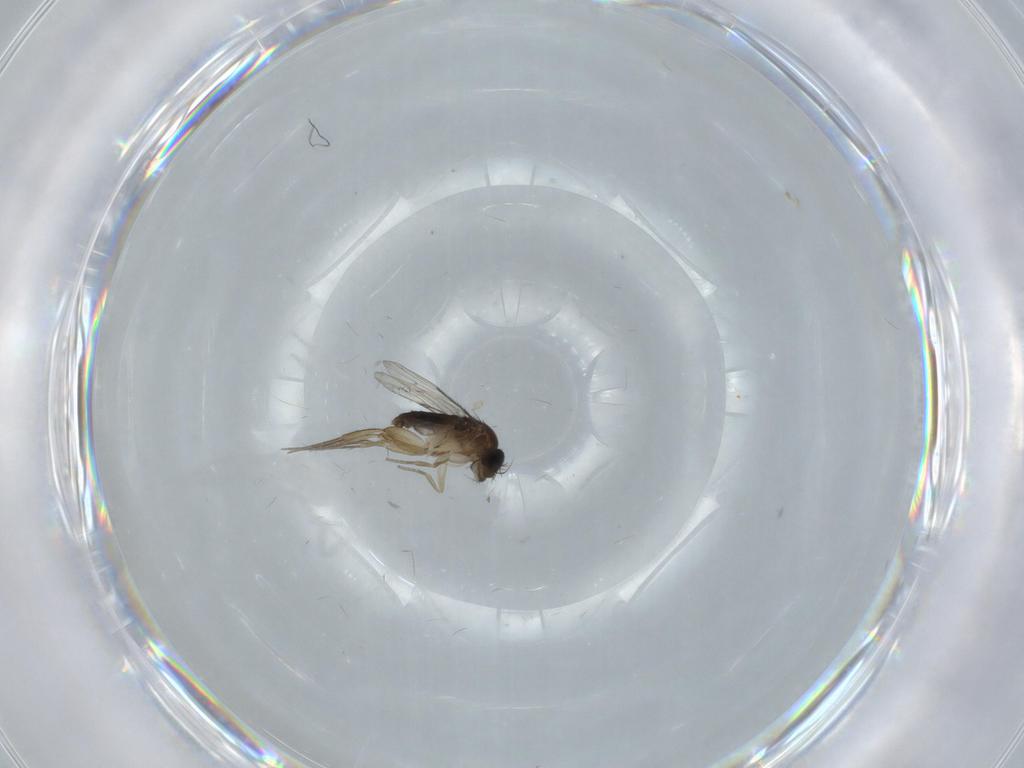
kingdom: Animalia
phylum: Arthropoda
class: Insecta
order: Diptera
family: Phoridae
